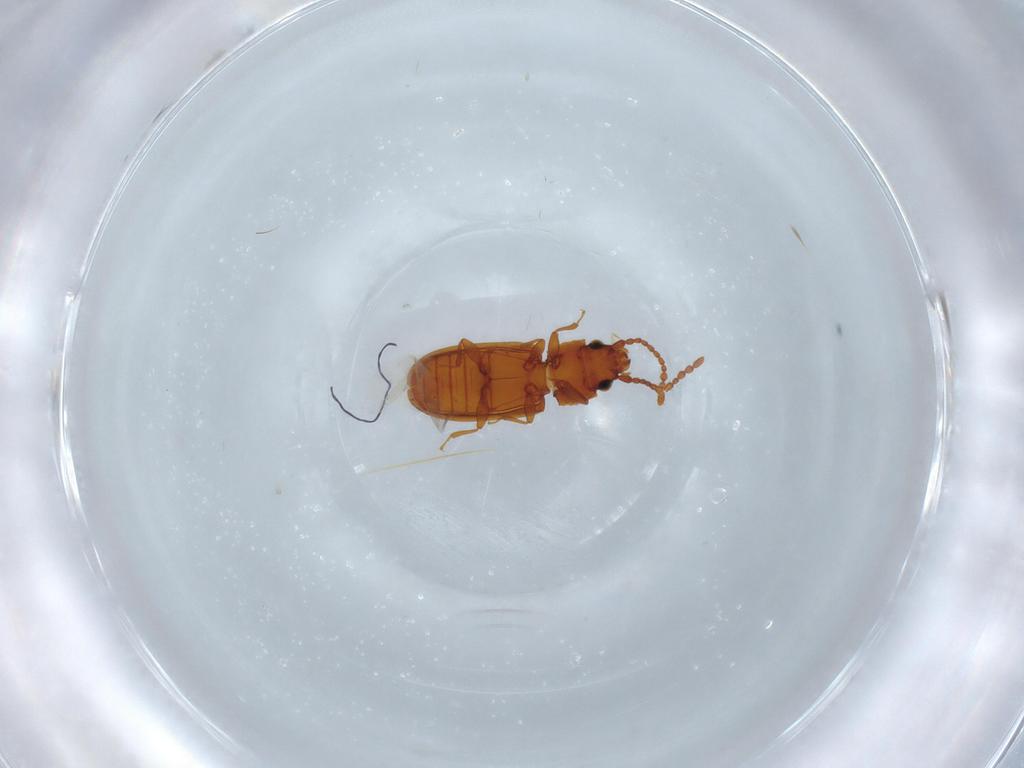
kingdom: Animalia
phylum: Arthropoda
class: Insecta
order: Coleoptera
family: Laemophloeidae
